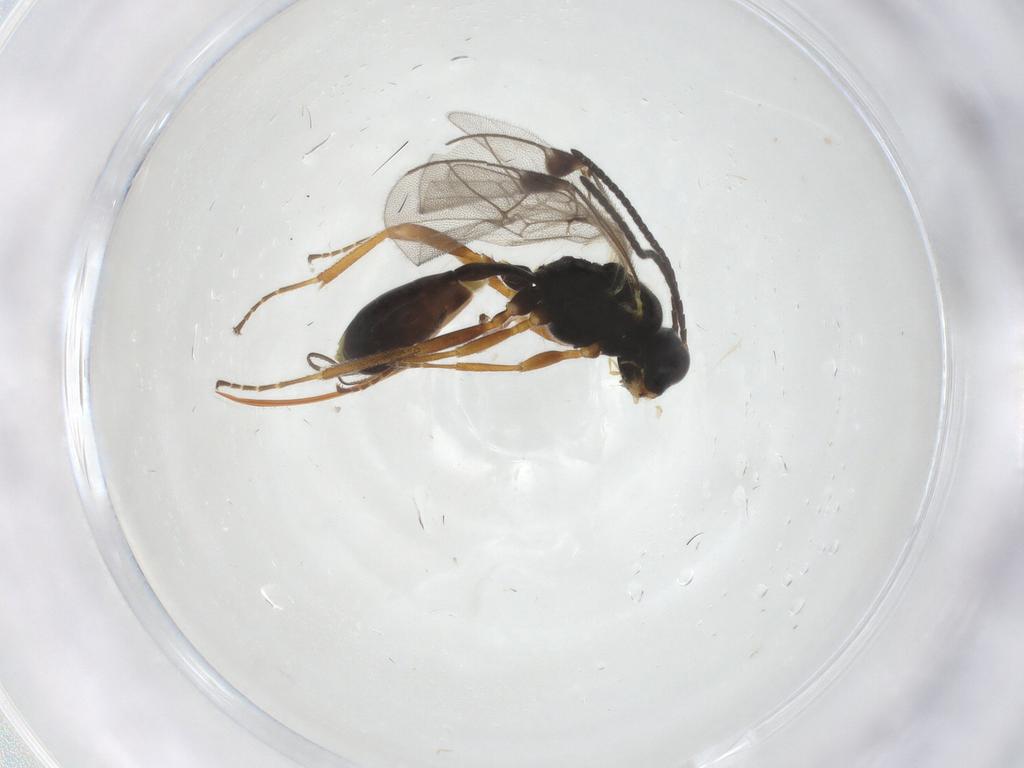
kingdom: Animalia
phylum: Arthropoda
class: Insecta
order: Hymenoptera
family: Ichneumonidae
